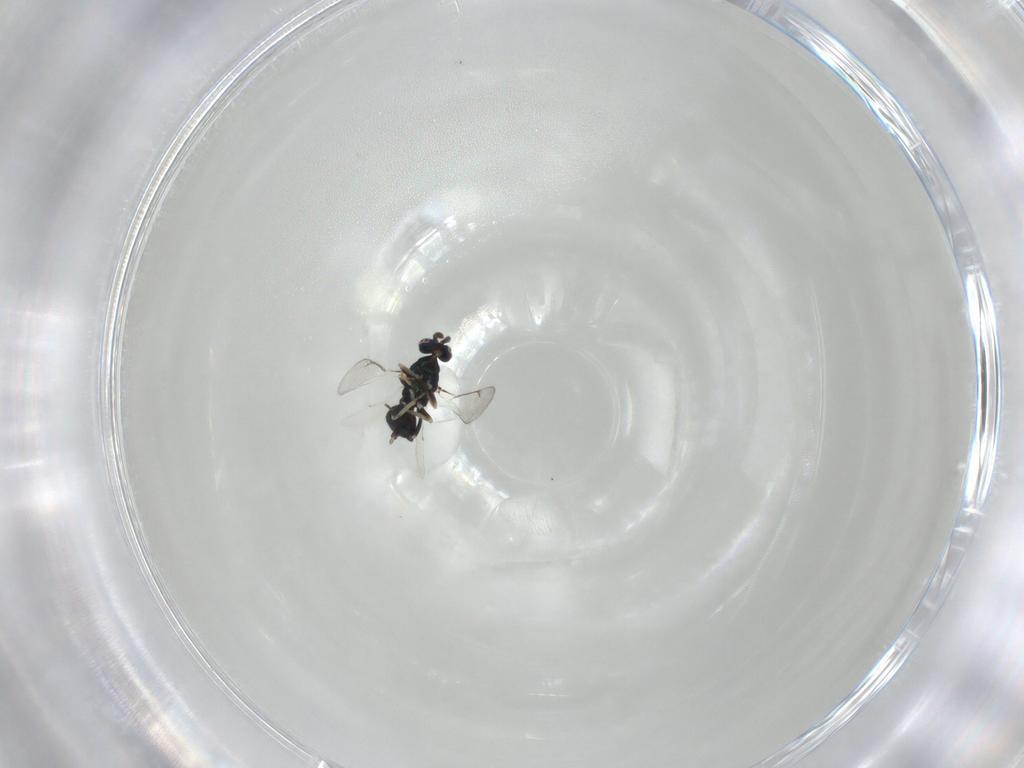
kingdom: Animalia
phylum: Arthropoda
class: Insecta
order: Hymenoptera
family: Eulophidae
